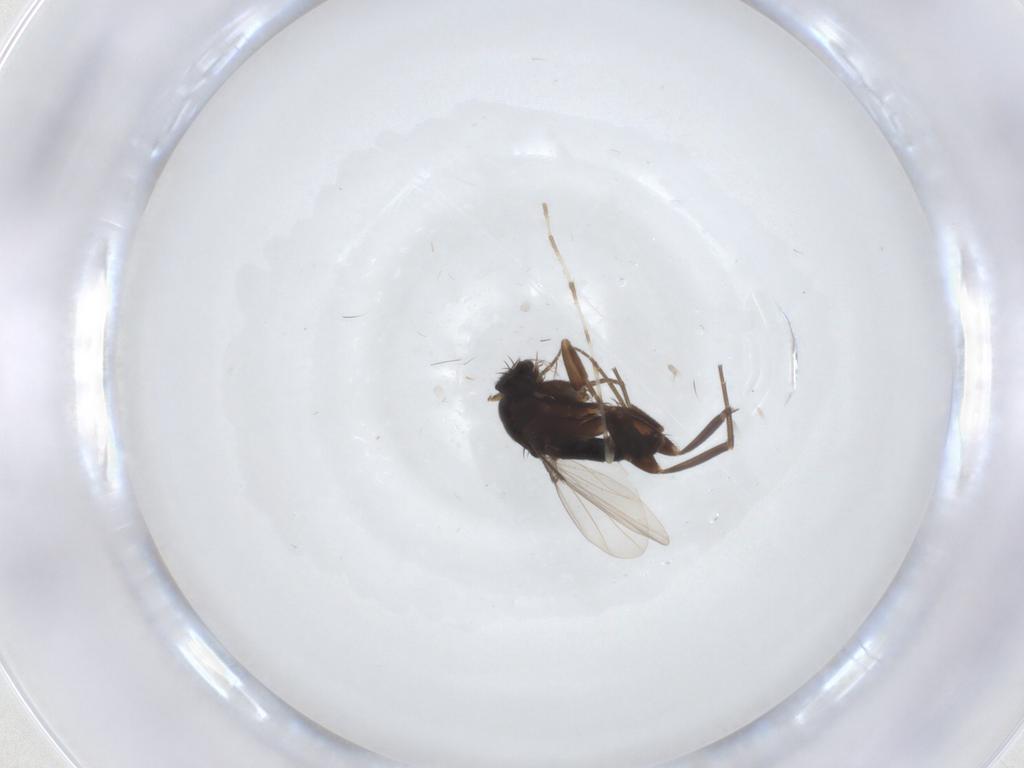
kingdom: Animalia
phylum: Arthropoda
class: Insecta
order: Diptera
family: Phoridae
